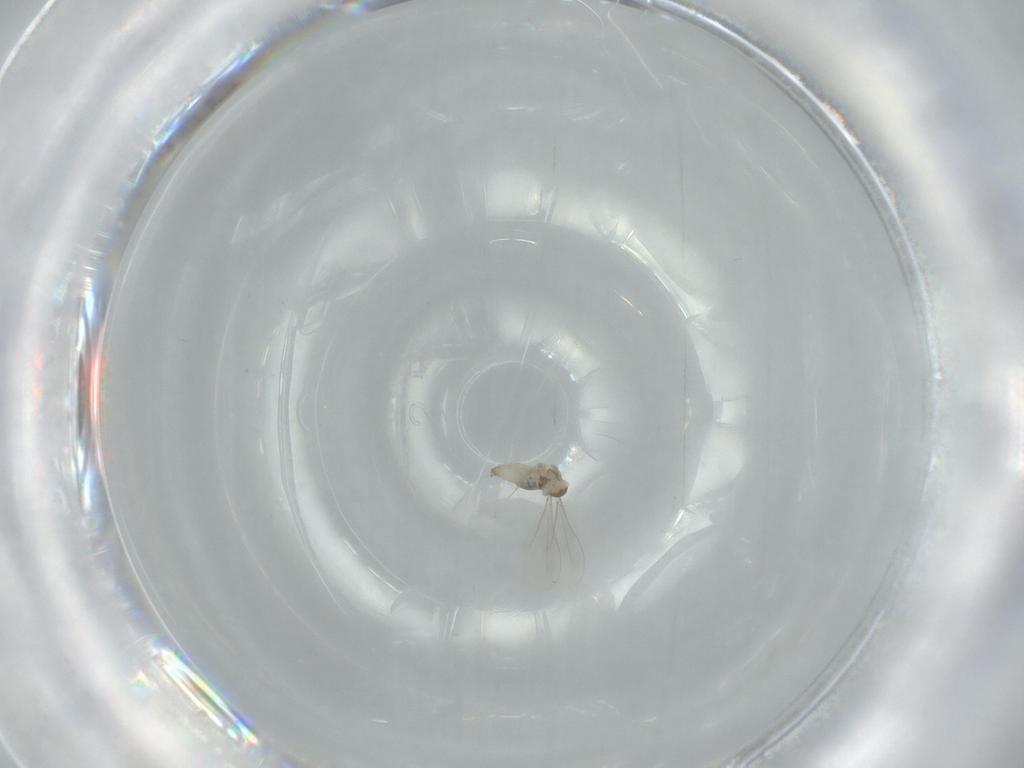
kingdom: Animalia
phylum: Arthropoda
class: Insecta
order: Diptera
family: Cecidomyiidae
